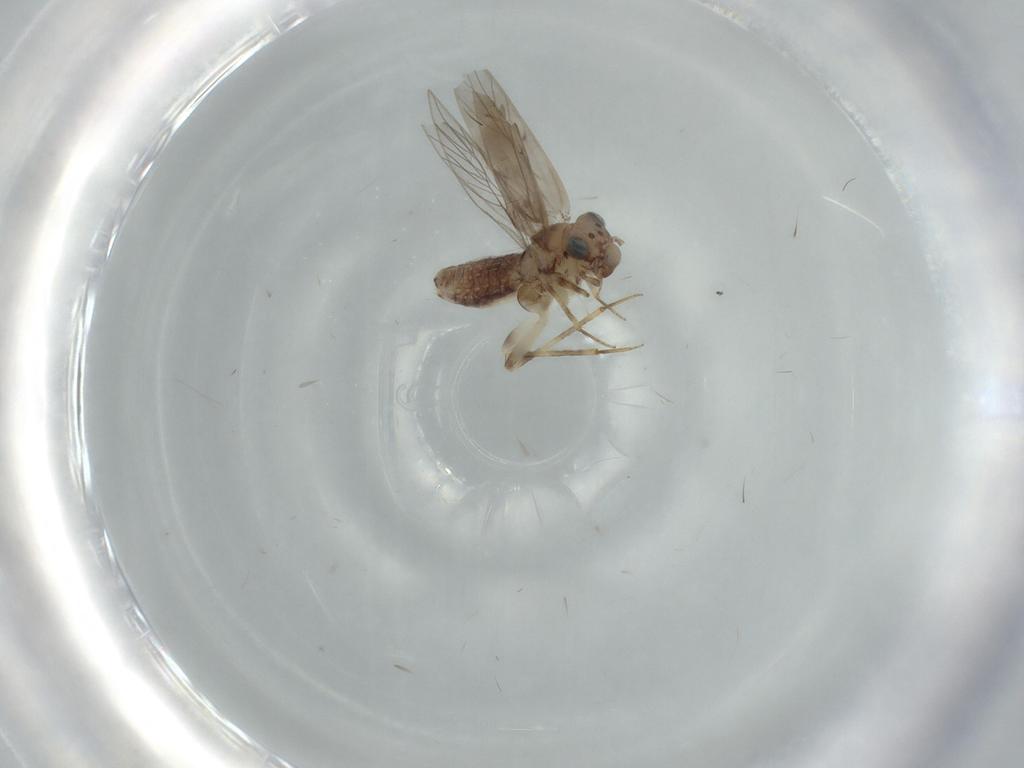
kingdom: Animalia
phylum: Arthropoda
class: Insecta
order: Psocodea
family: Lepidopsocidae
